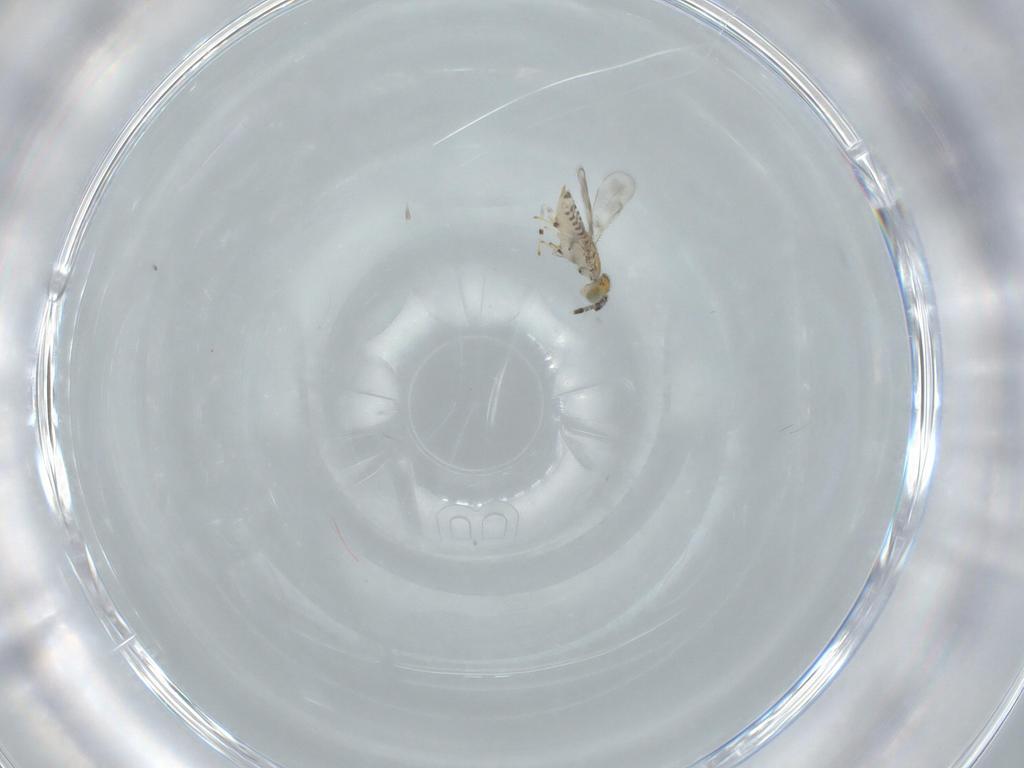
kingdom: Animalia
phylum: Arthropoda
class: Insecta
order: Hymenoptera
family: Aphelinidae
